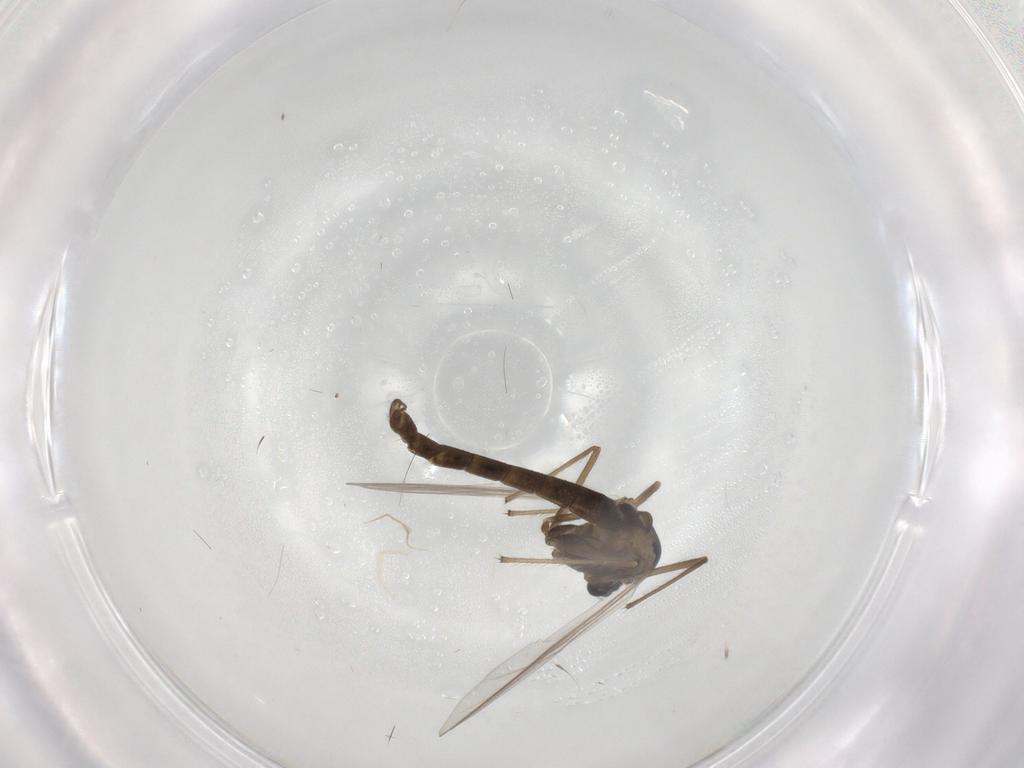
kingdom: Animalia
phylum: Arthropoda
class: Insecta
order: Diptera
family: Chironomidae
